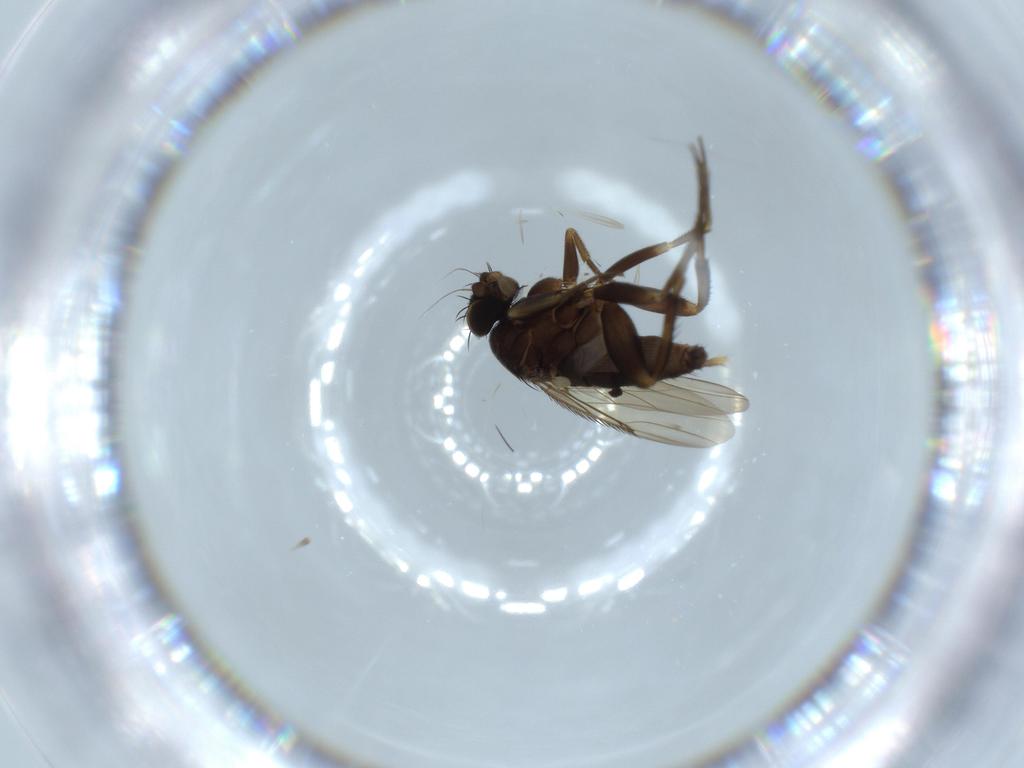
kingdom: Animalia
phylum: Arthropoda
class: Insecta
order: Diptera
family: Phoridae
